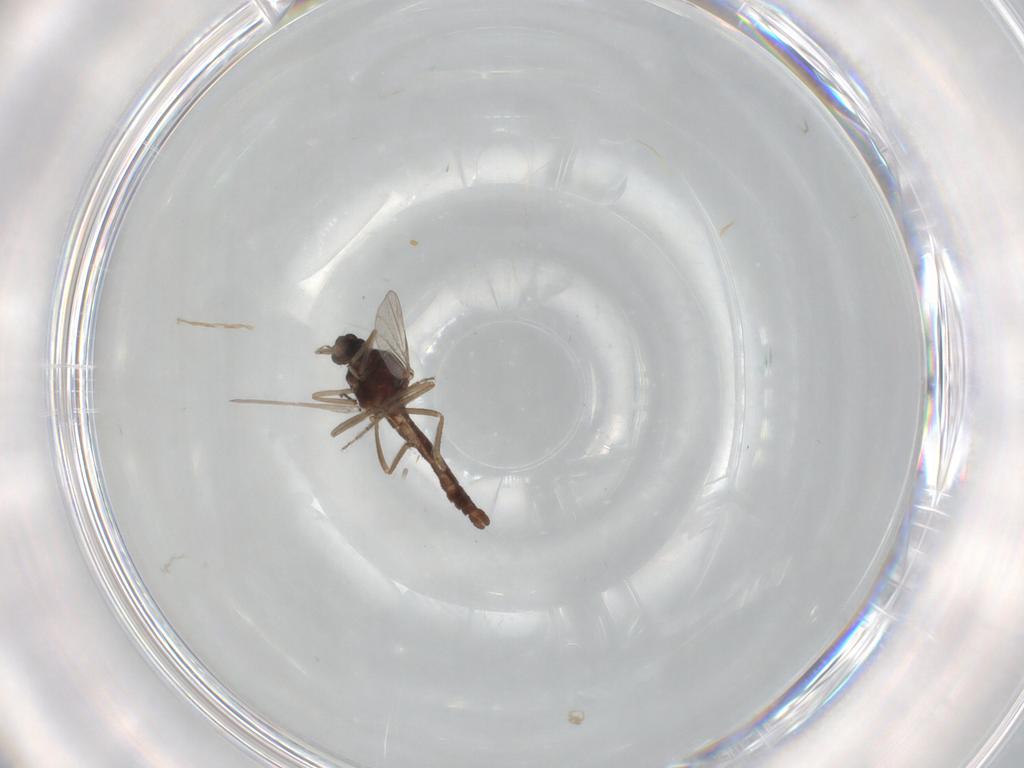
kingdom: Animalia
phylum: Arthropoda
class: Insecta
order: Diptera
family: Ceratopogonidae
